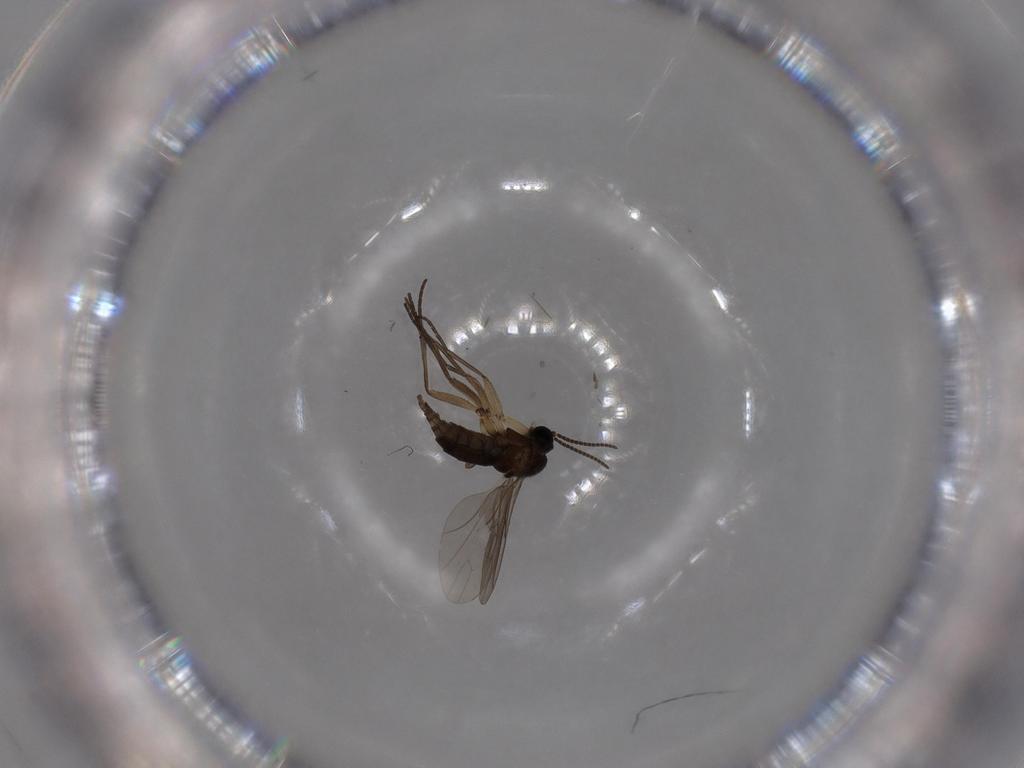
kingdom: Animalia
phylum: Arthropoda
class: Insecta
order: Diptera
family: Sciaridae
